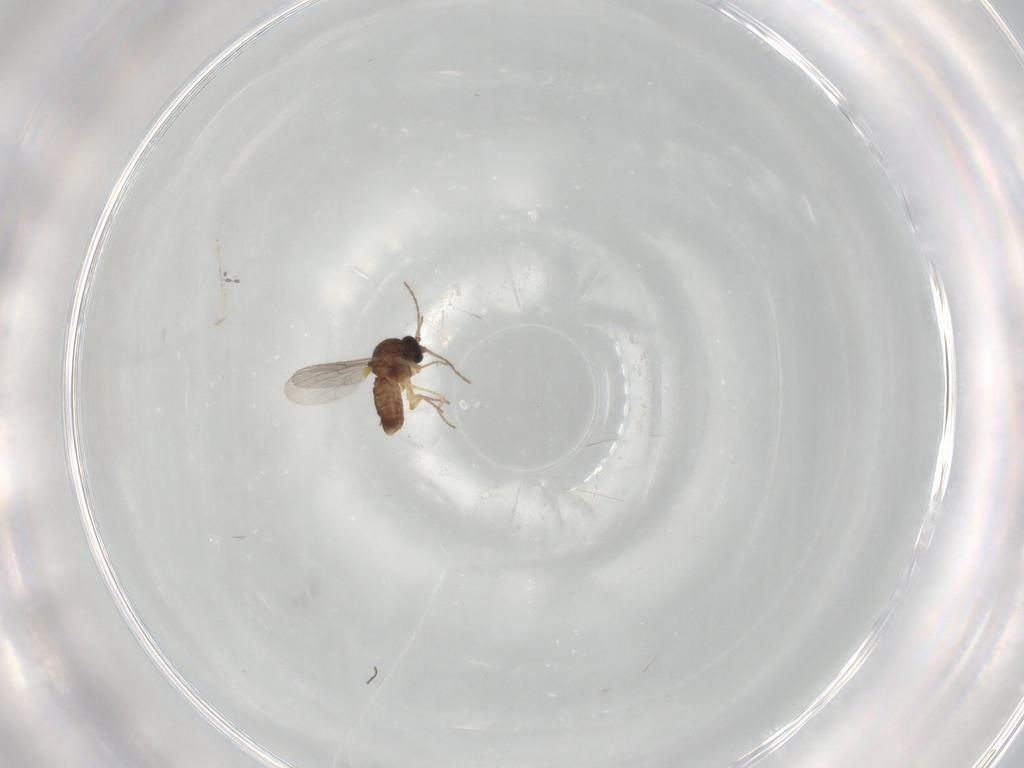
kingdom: Animalia
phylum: Arthropoda
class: Insecta
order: Diptera
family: Ceratopogonidae
